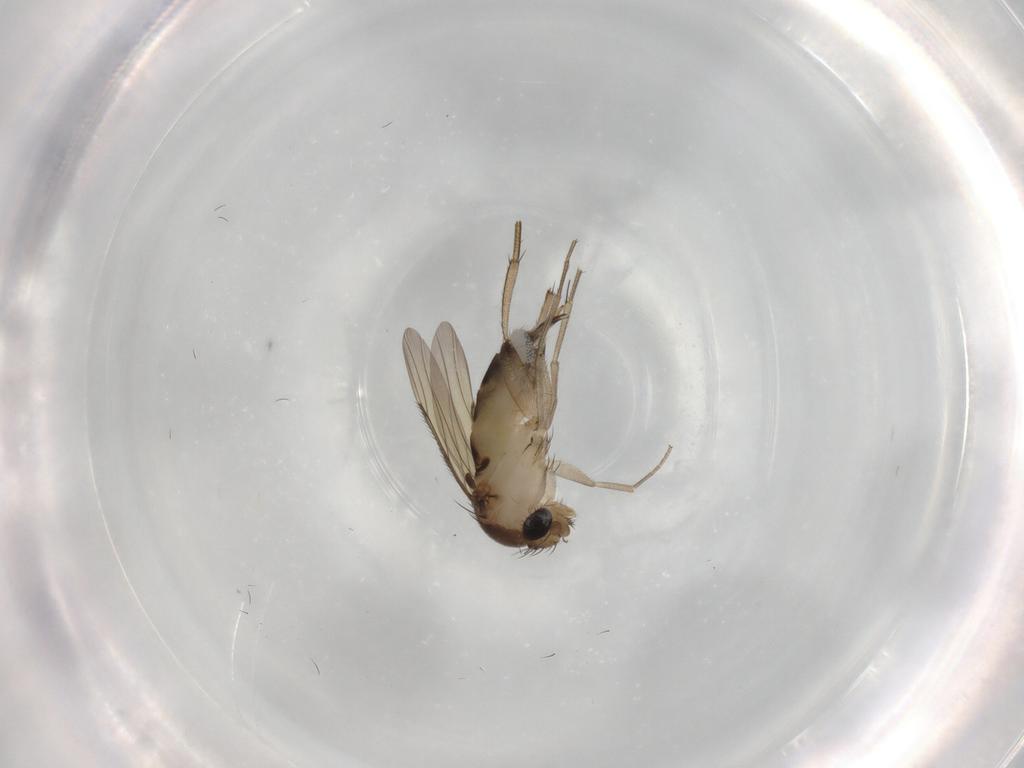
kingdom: Animalia
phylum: Arthropoda
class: Insecta
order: Diptera
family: Phoridae
